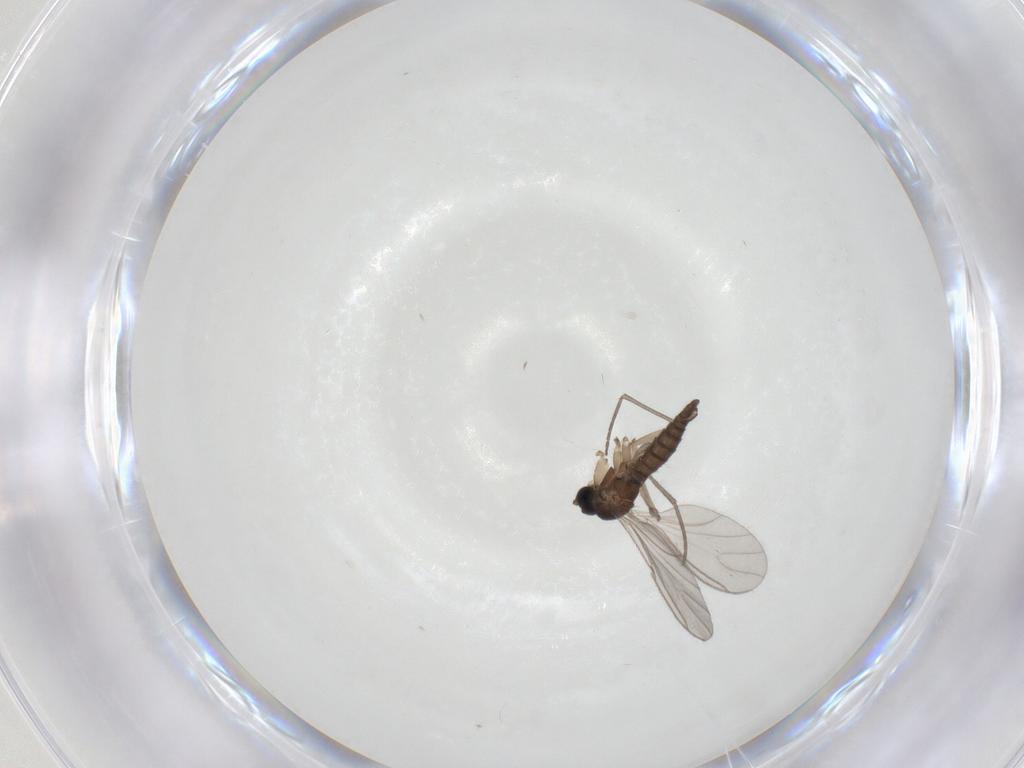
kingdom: Animalia
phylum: Arthropoda
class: Insecta
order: Diptera
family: Sciaridae
